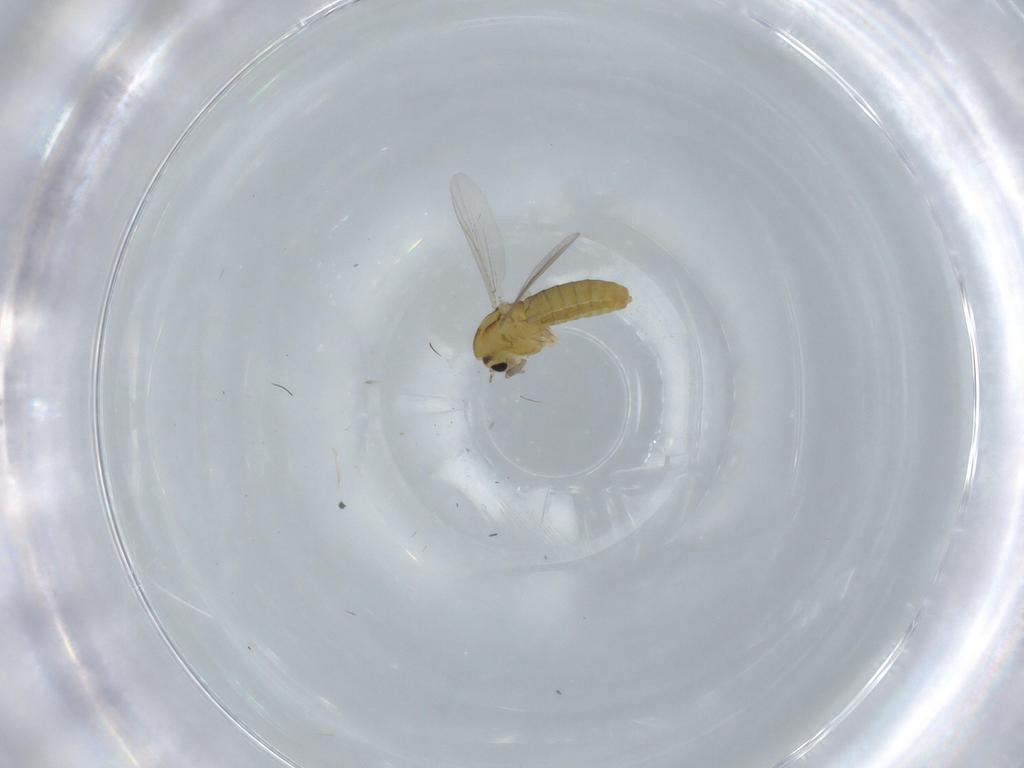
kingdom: Animalia
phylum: Arthropoda
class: Insecta
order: Diptera
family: Chironomidae
